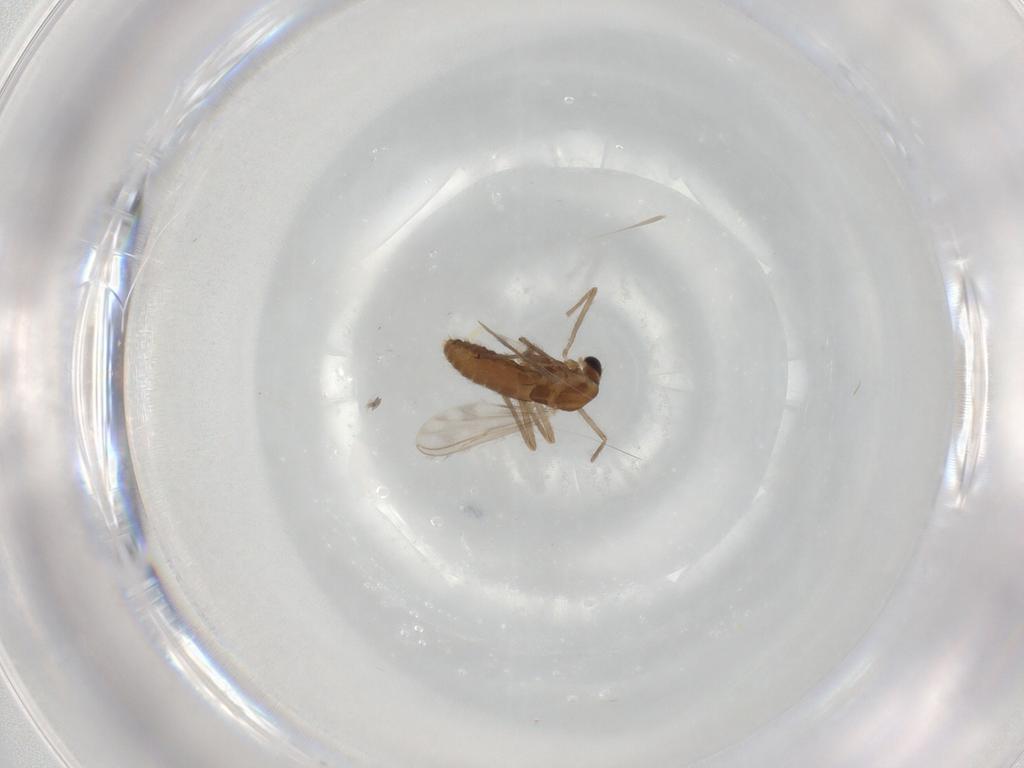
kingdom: Animalia
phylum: Arthropoda
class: Insecta
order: Diptera
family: Chironomidae
